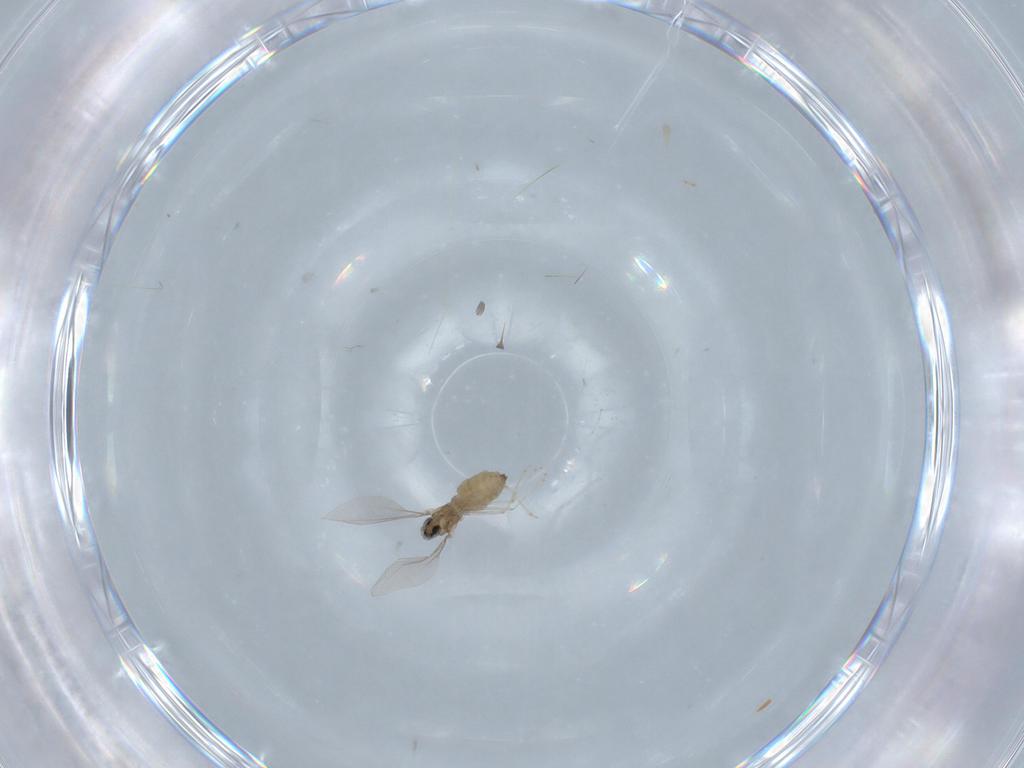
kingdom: Animalia
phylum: Arthropoda
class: Insecta
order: Diptera
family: Cecidomyiidae
